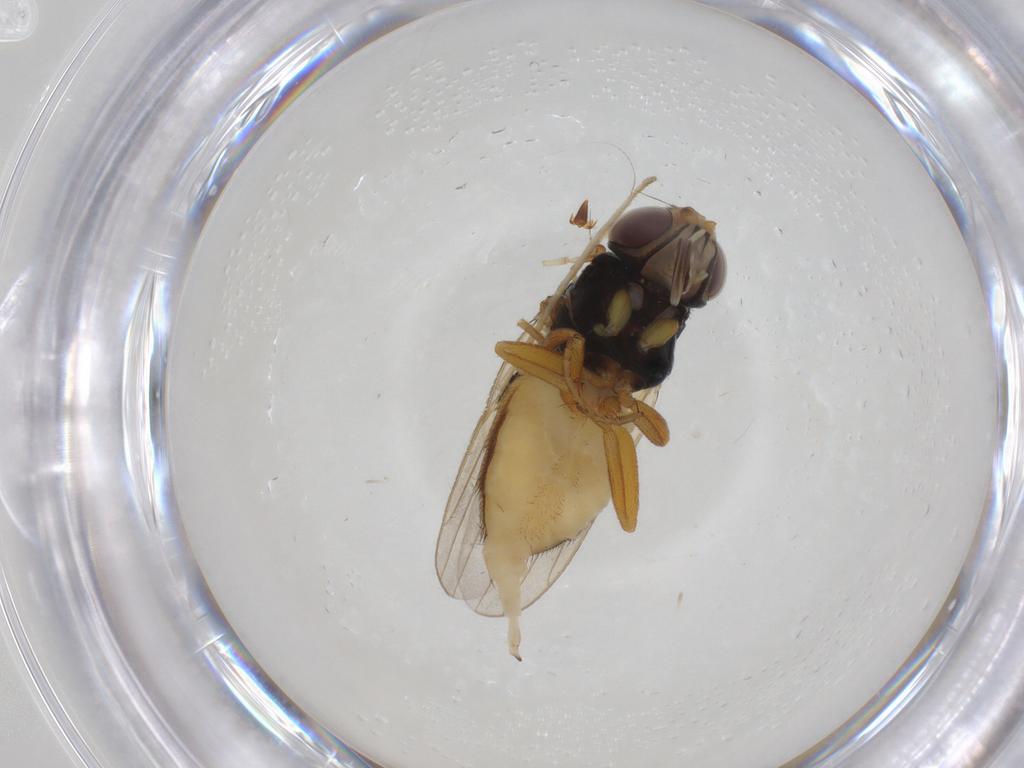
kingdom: Animalia
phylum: Arthropoda
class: Insecta
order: Diptera
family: Chloropidae
